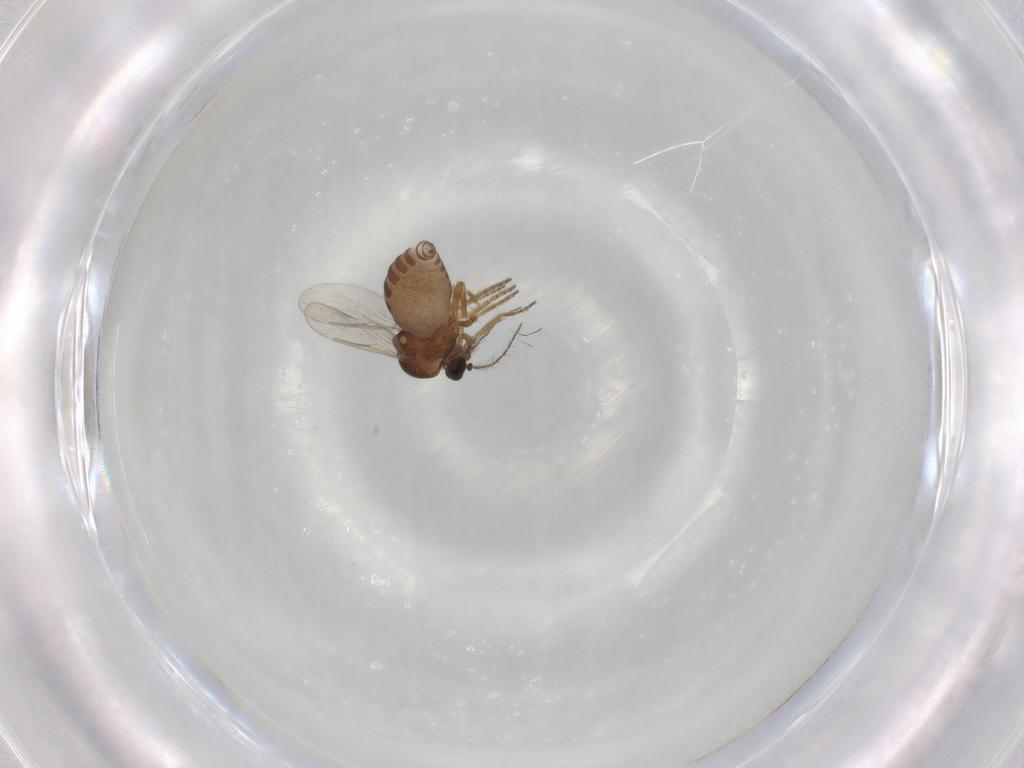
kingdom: Animalia
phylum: Arthropoda
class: Insecta
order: Diptera
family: Ceratopogonidae
